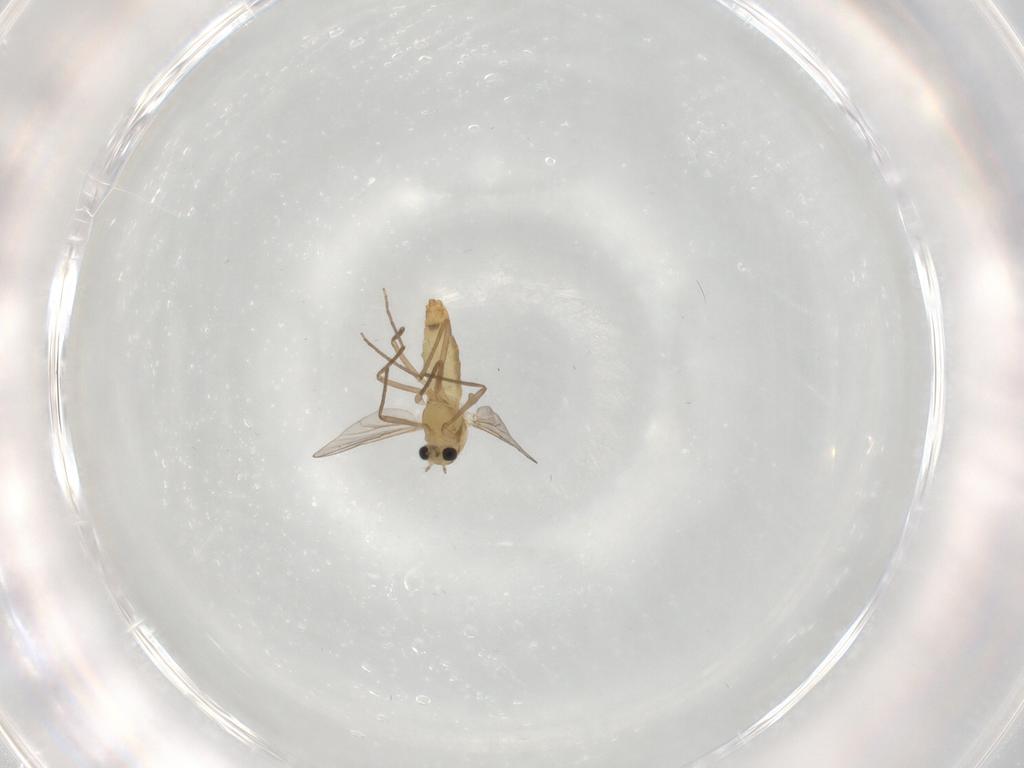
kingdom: Animalia
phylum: Arthropoda
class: Insecta
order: Diptera
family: Chironomidae
